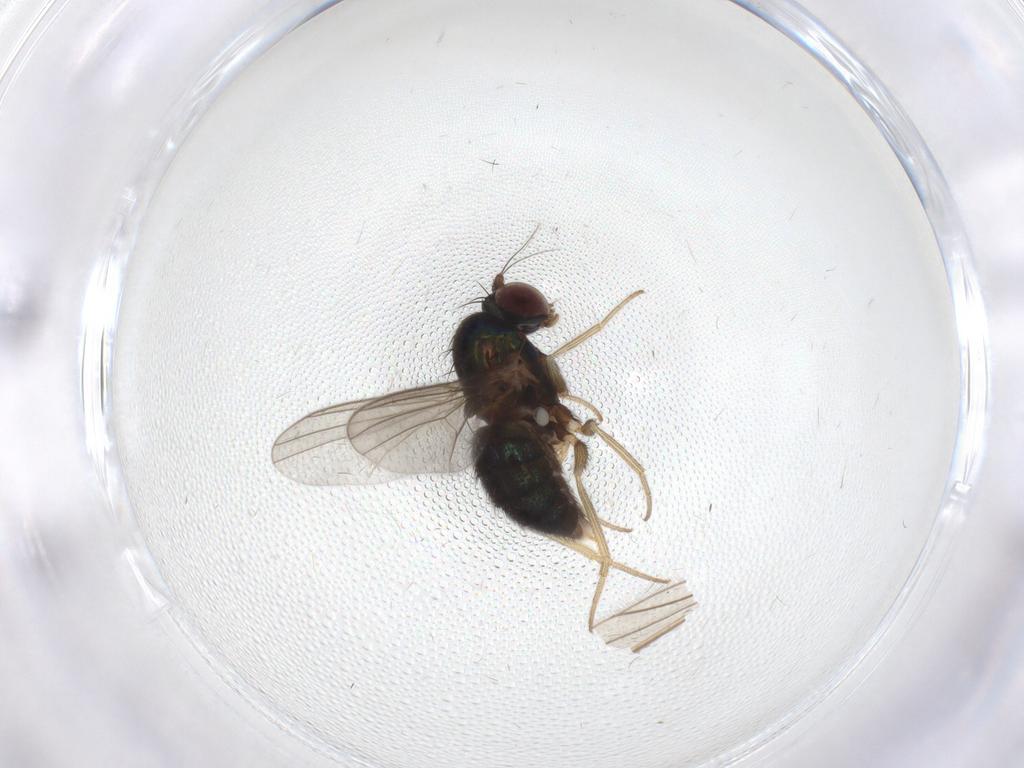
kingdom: Animalia
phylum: Arthropoda
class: Insecta
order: Diptera
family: Dolichopodidae
